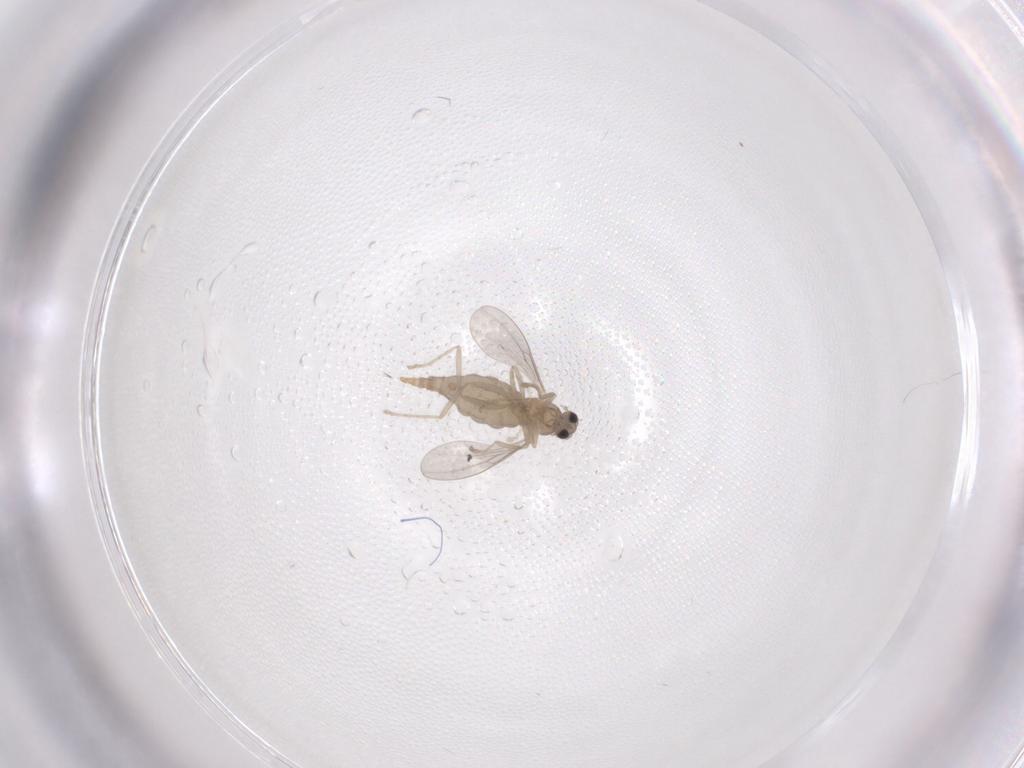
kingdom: Animalia
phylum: Arthropoda
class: Insecta
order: Diptera
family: Cecidomyiidae
